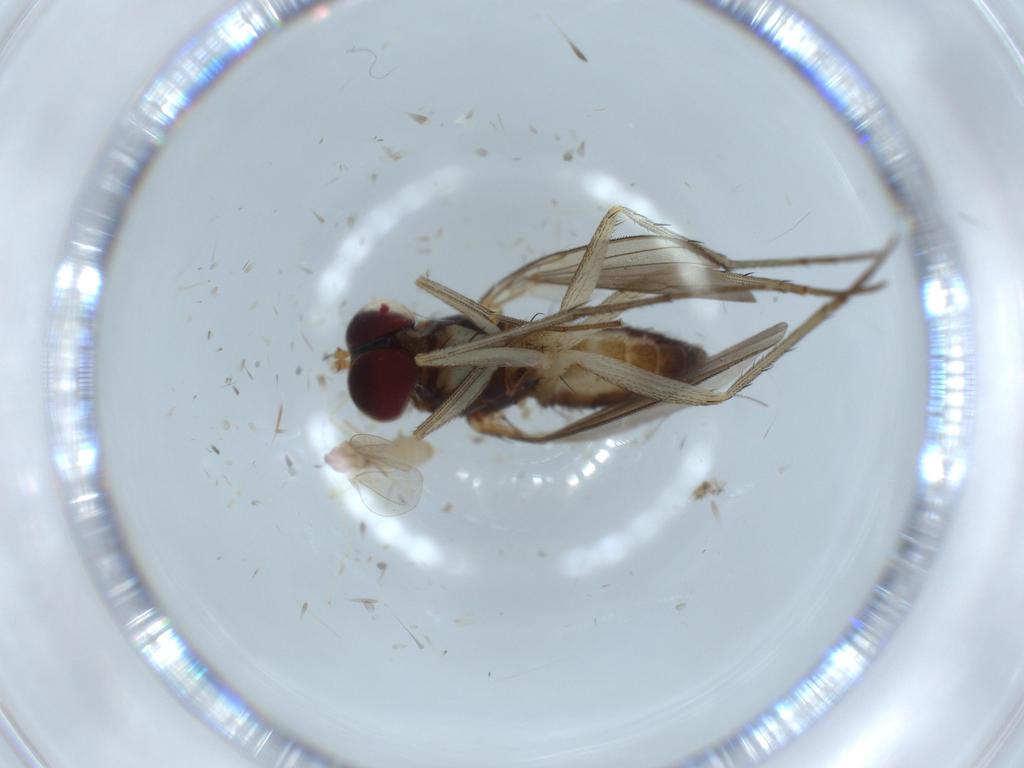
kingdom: Animalia
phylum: Arthropoda
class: Insecta
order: Diptera
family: Dolichopodidae
